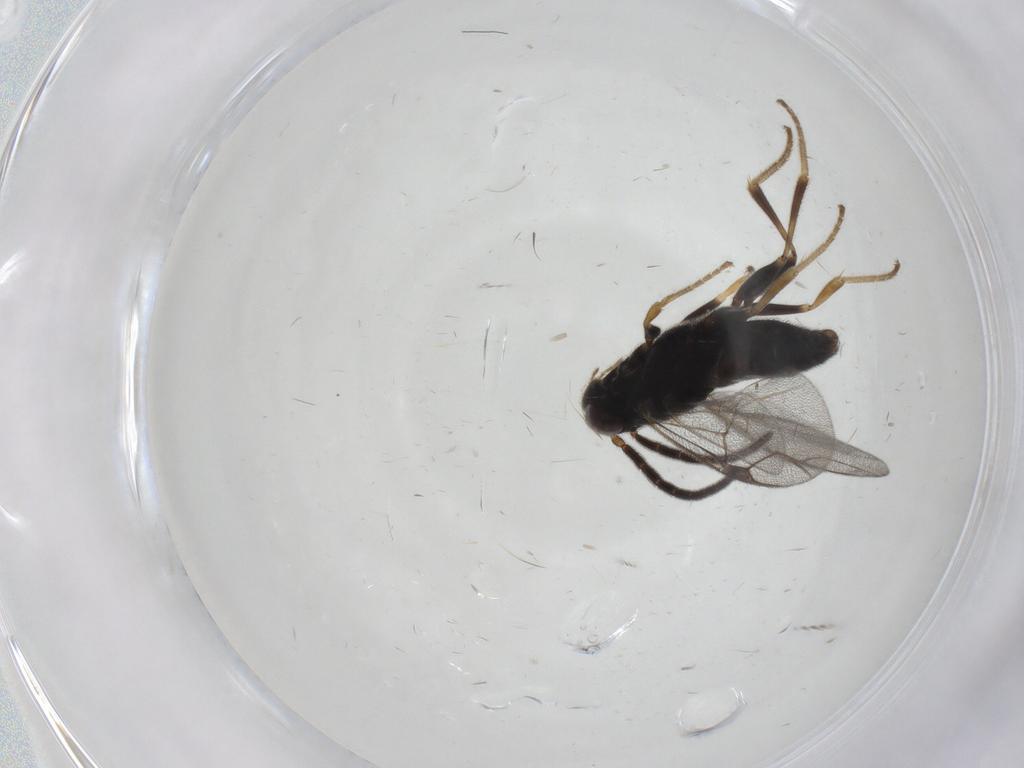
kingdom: Animalia
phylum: Arthropoda
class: Insecta
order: Hymenoptera
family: Dryinidae
